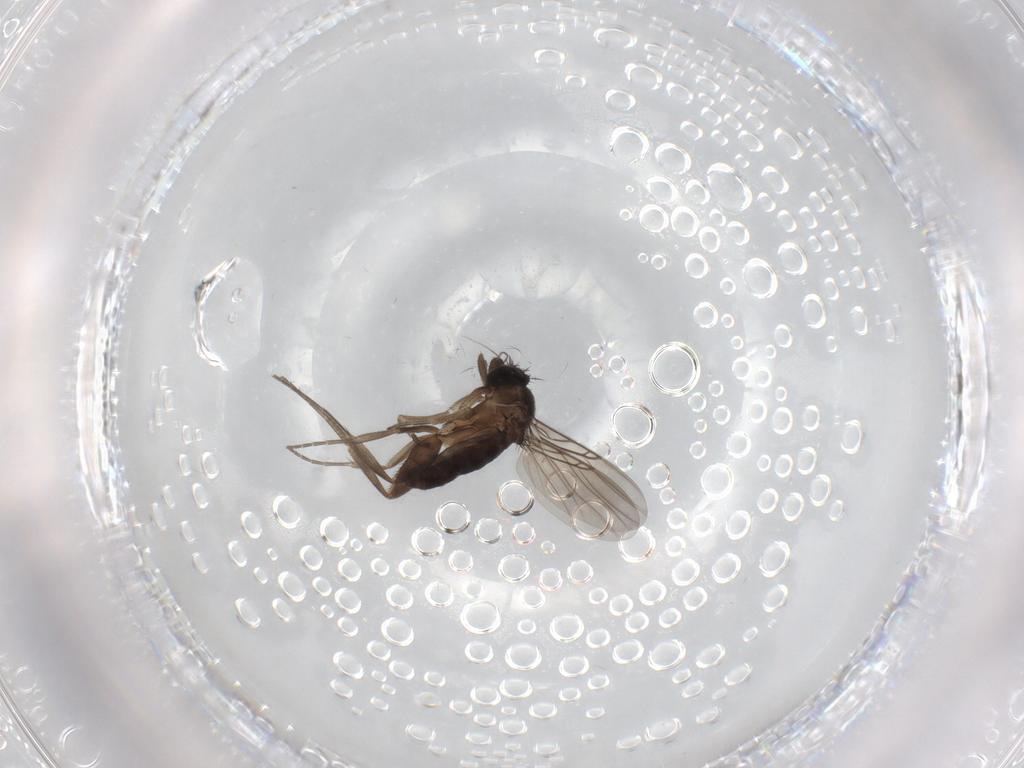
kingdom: Animalia
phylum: Arthropoda
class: Insecta
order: Diptera
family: Phoridae
